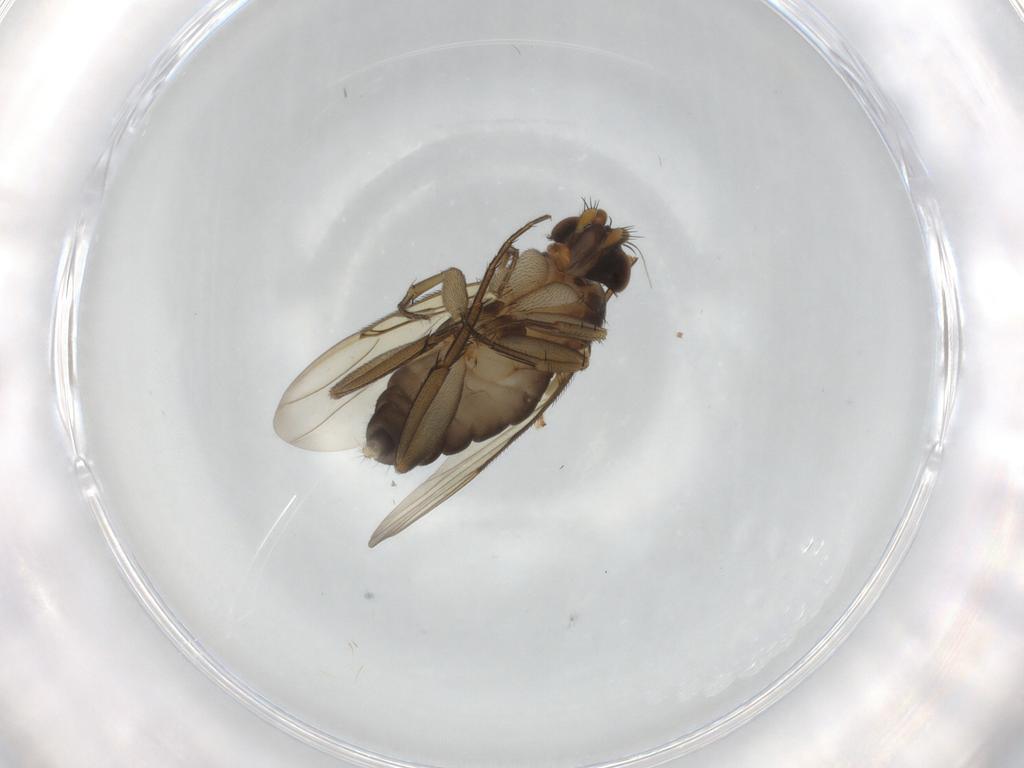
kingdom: Animalia
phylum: Arthropoda
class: Insecta
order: Diptera
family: Phoridae
